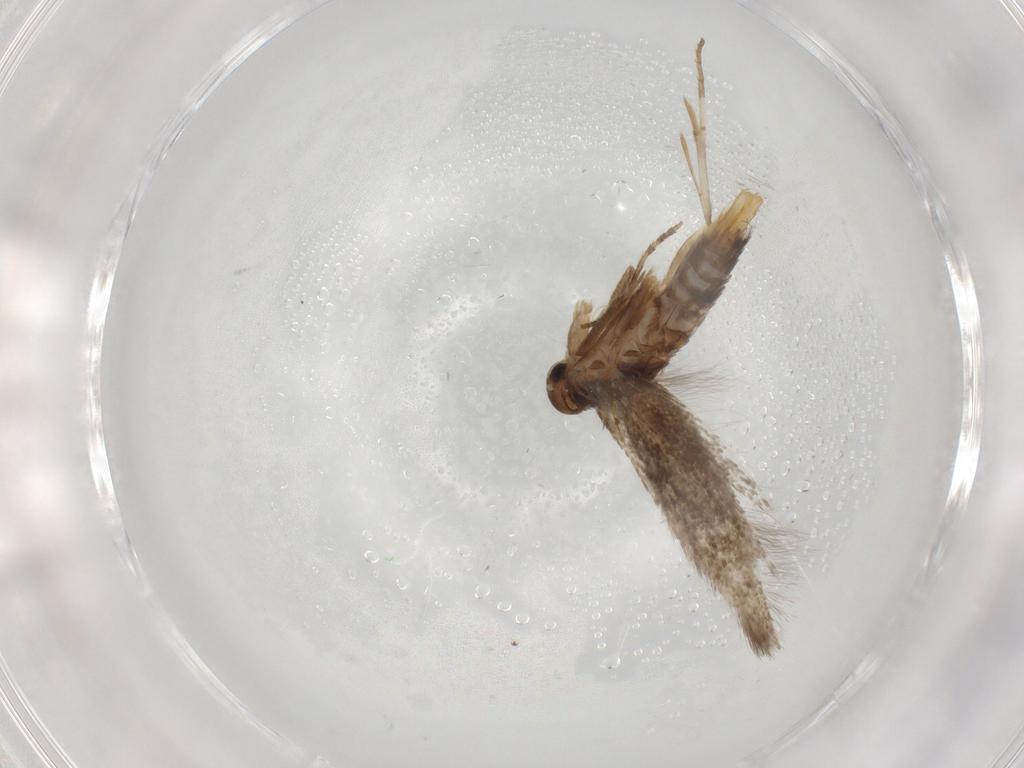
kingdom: Animalia
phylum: Arthropoda
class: Insecta
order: Lepidoptera
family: Elachistidae
